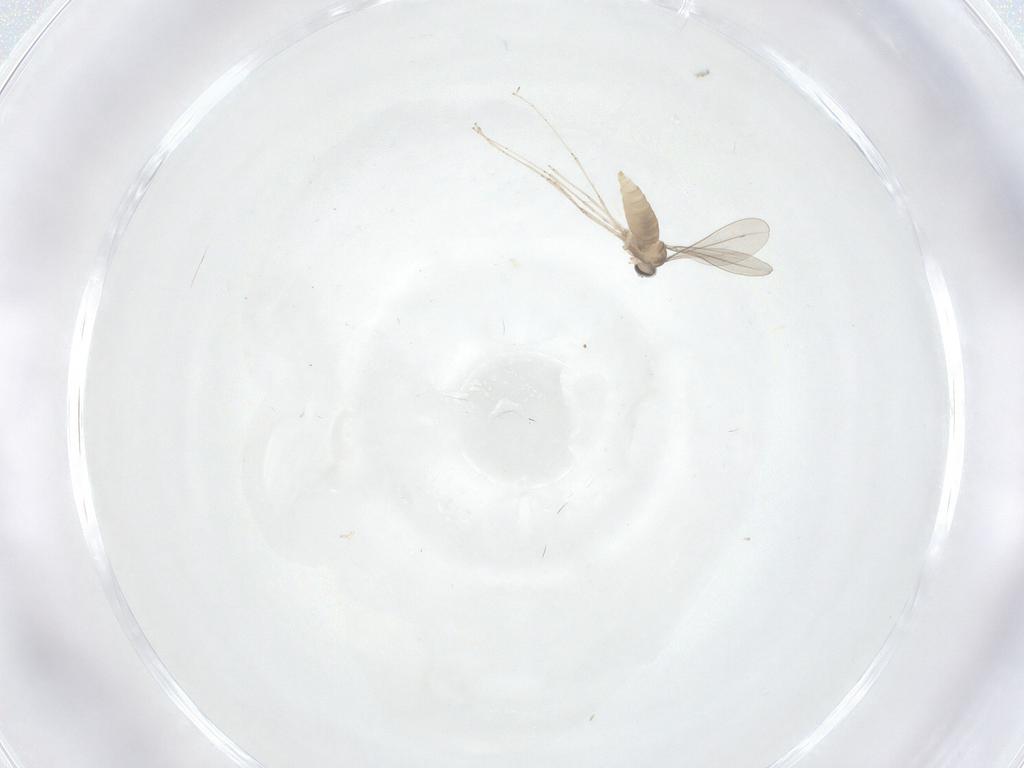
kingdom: Animalia
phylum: Arthropoda
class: Insecta
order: Diptera
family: Cecidomyiidae
